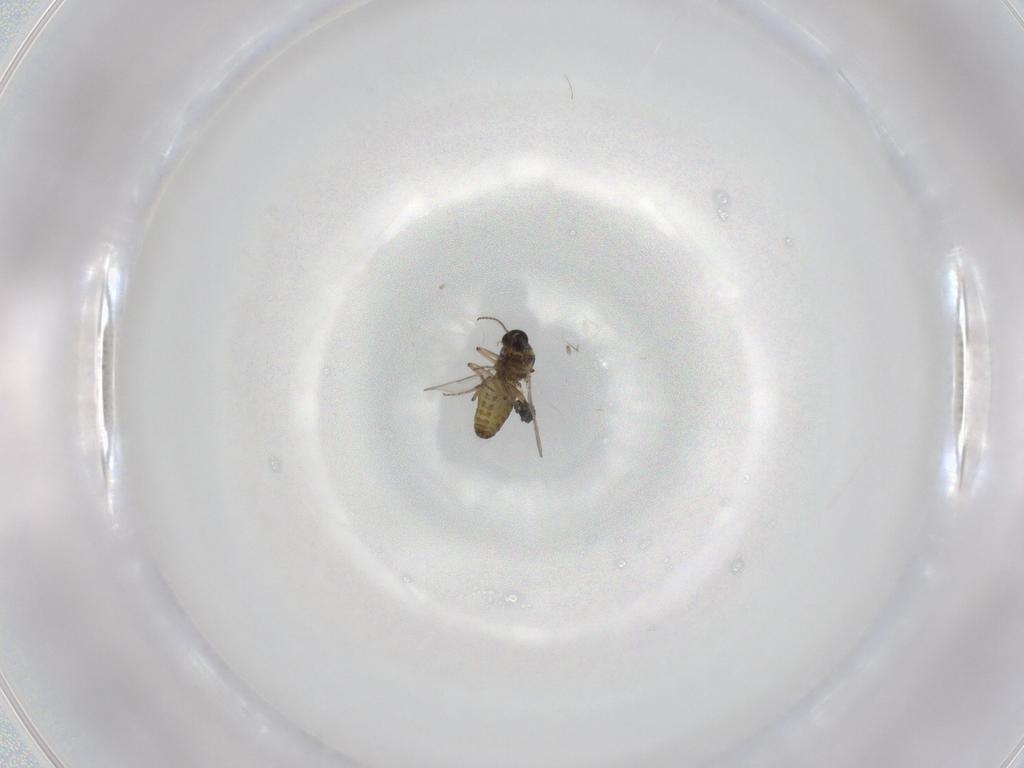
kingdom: Animalia
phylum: Arthropoda
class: Insecta
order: Diptera
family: Ceratopogonidae
